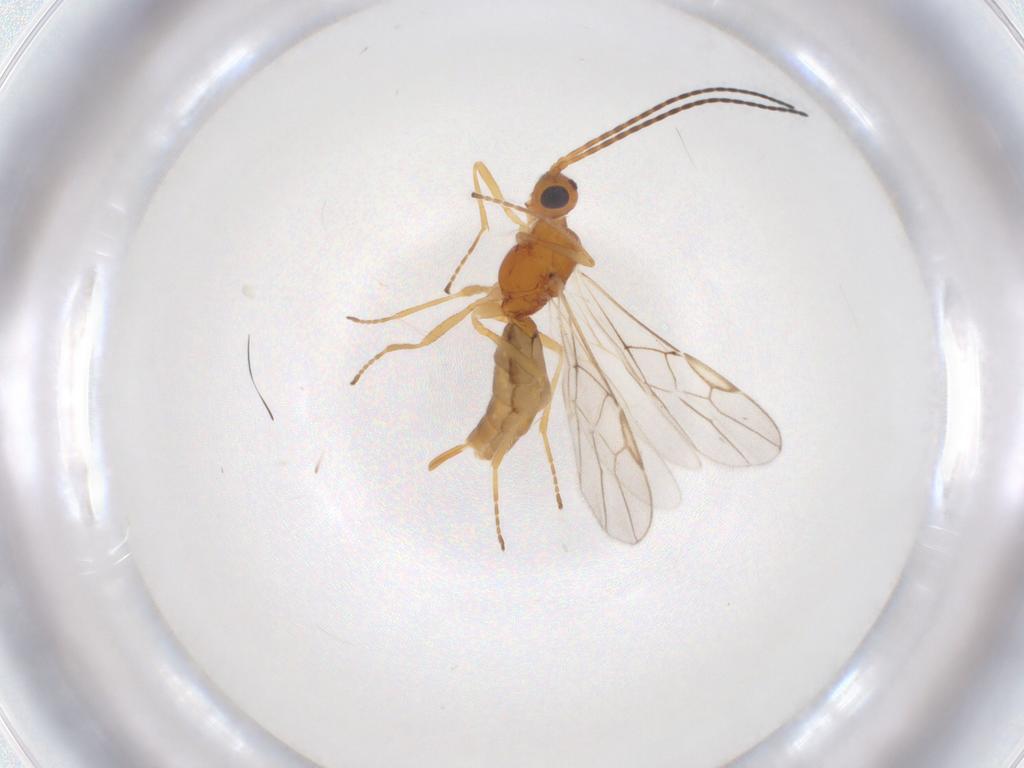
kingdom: Animalia
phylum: Arthropoda
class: Insecta
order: Hymenoptera
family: Braconidae
